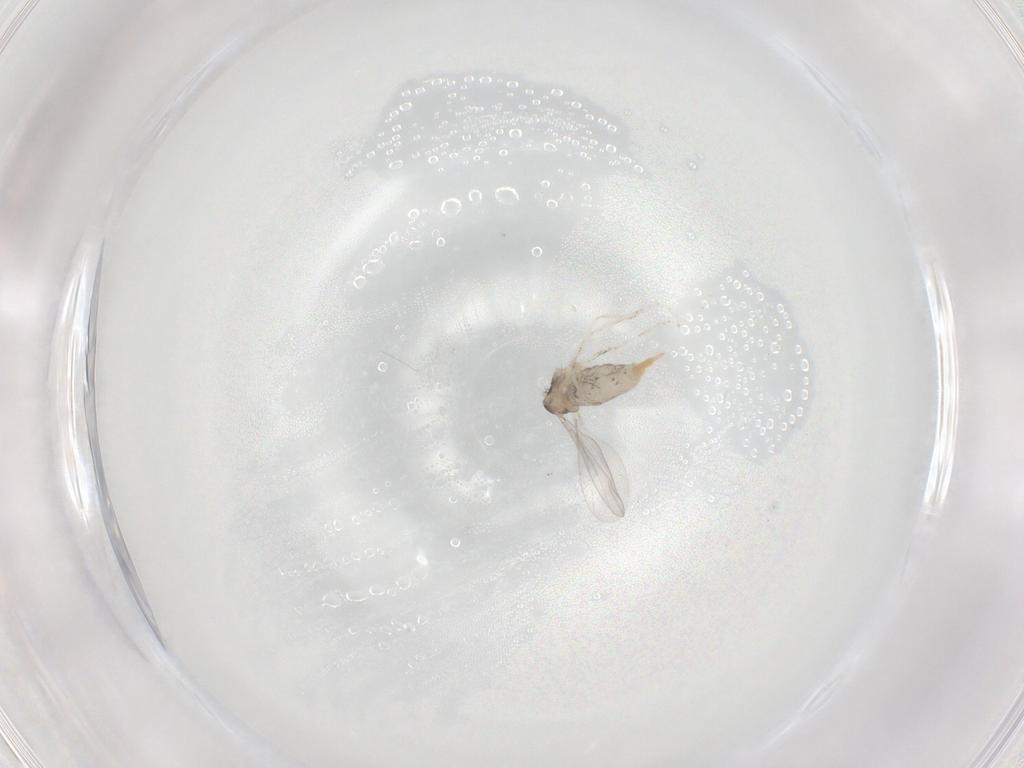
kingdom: Animalia
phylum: Arthropoda
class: Insecta
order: Diptera
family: Cecidomyiidae
